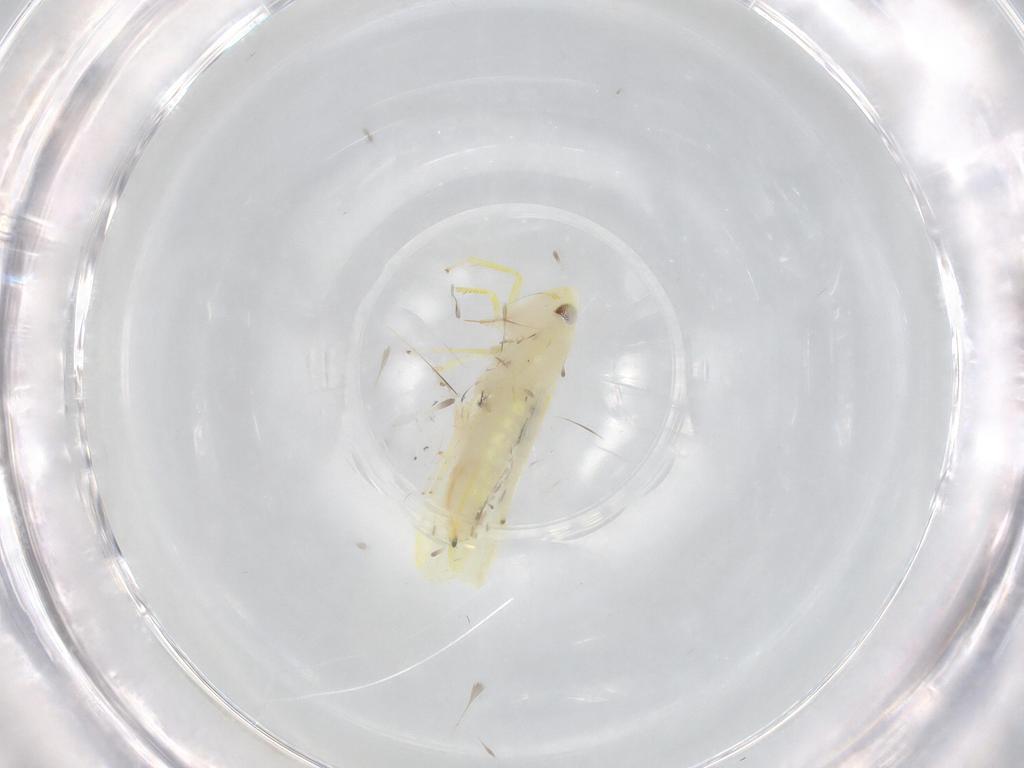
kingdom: Animalia
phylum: Arthropoda
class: Insecta
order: Hemiptera
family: Cicadellidae
